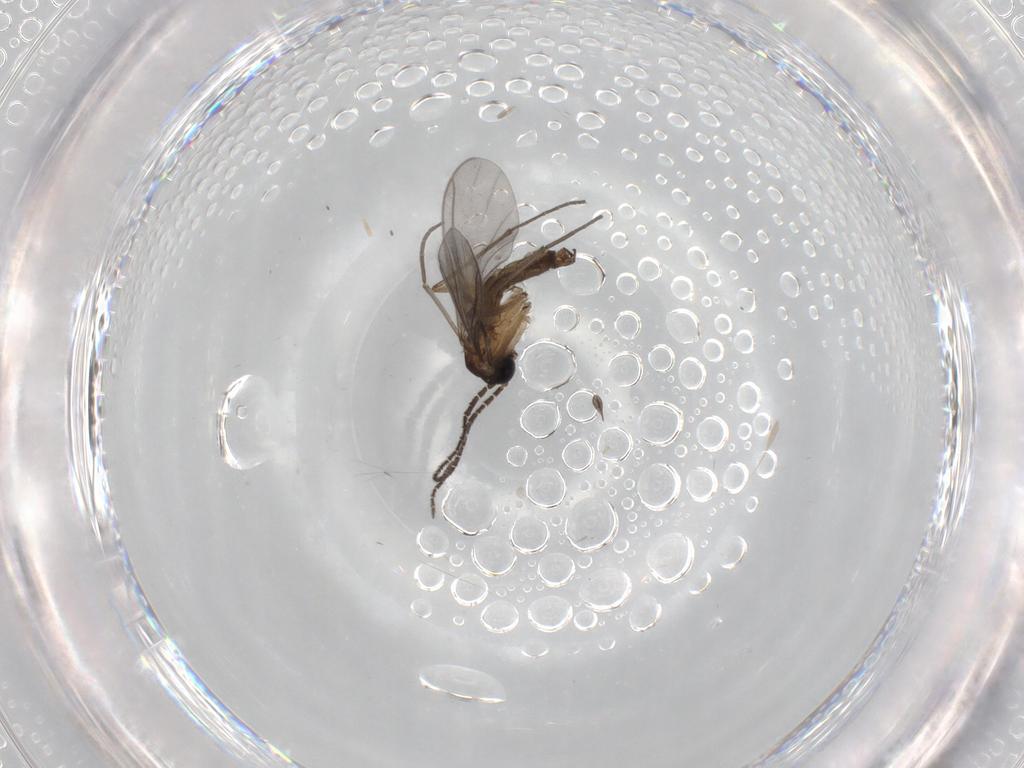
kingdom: Animalia
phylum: Arthropoda
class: Insecta
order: Diptera
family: Sciaridae
